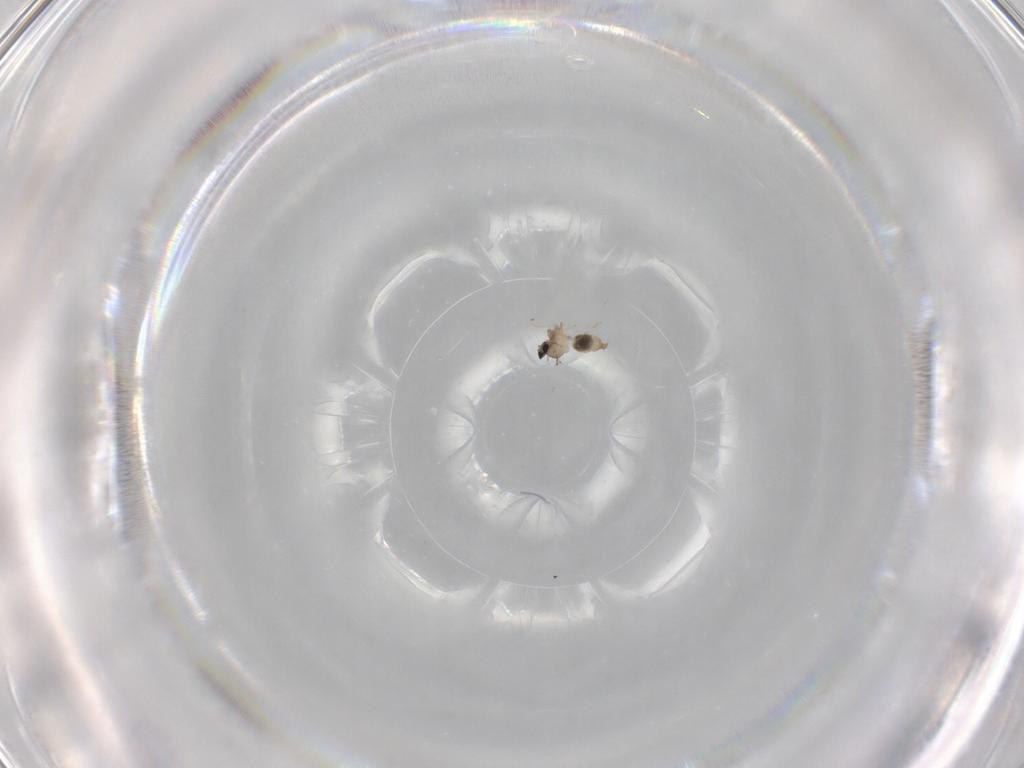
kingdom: Animalia
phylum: Arthropoda
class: Insecta
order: Diptera
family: Cecidomyiidae
